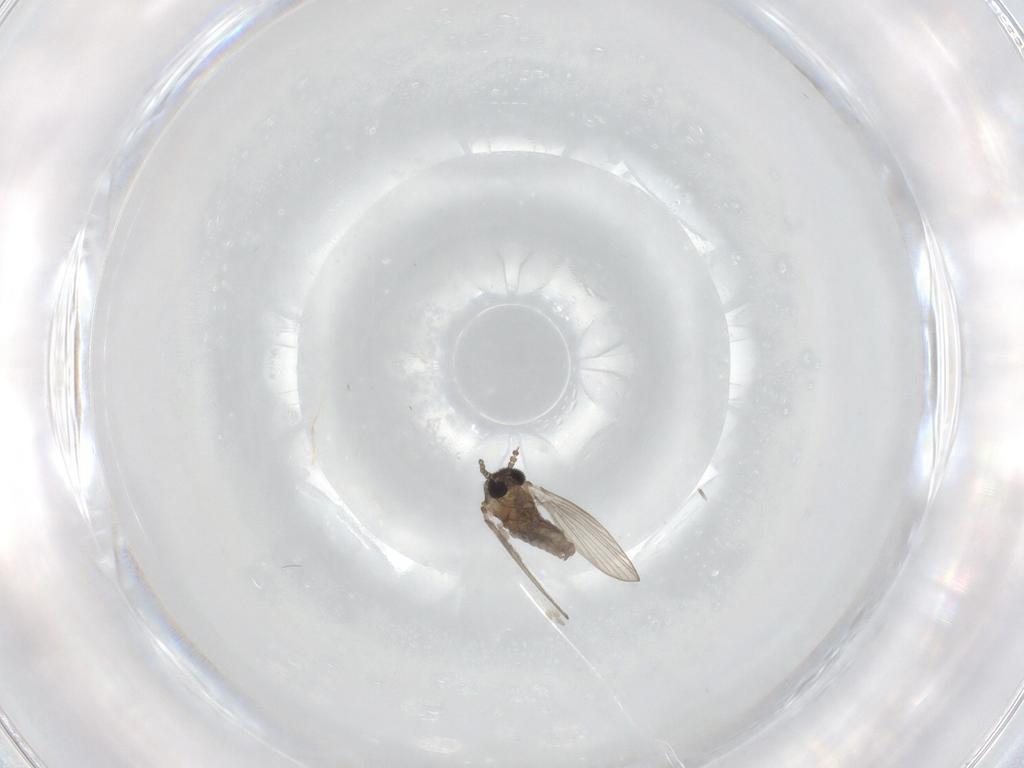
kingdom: Animalia
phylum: Arthropoda
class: Insecta
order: Diptera
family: Psychodidae
